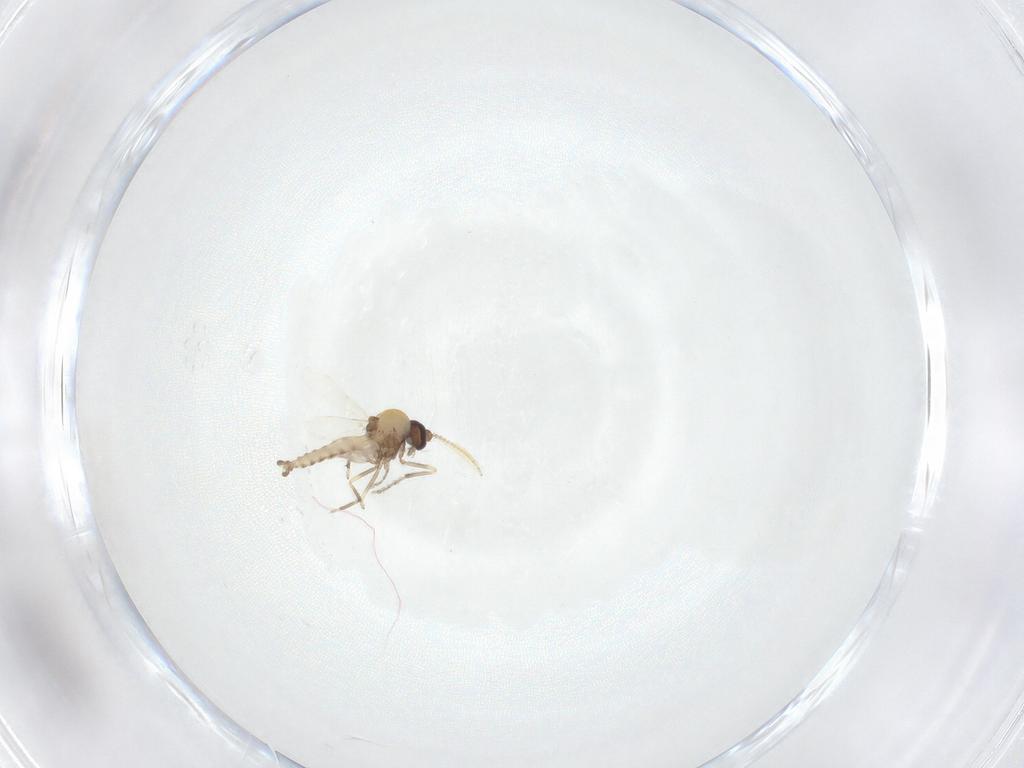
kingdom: Animalia
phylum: Arthropoda
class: Insecta
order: Diptera
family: Ceratopogonidae
